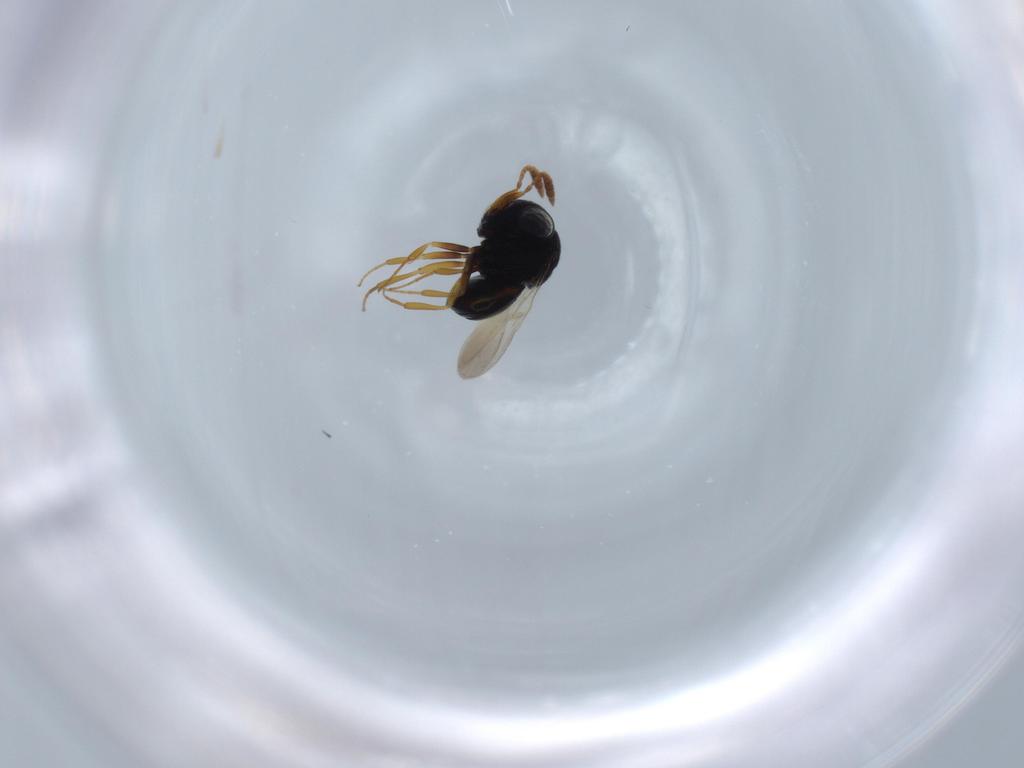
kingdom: Animalia
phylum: Arthropoda
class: Insecta
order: Hymenoptera
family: Scelionidae
